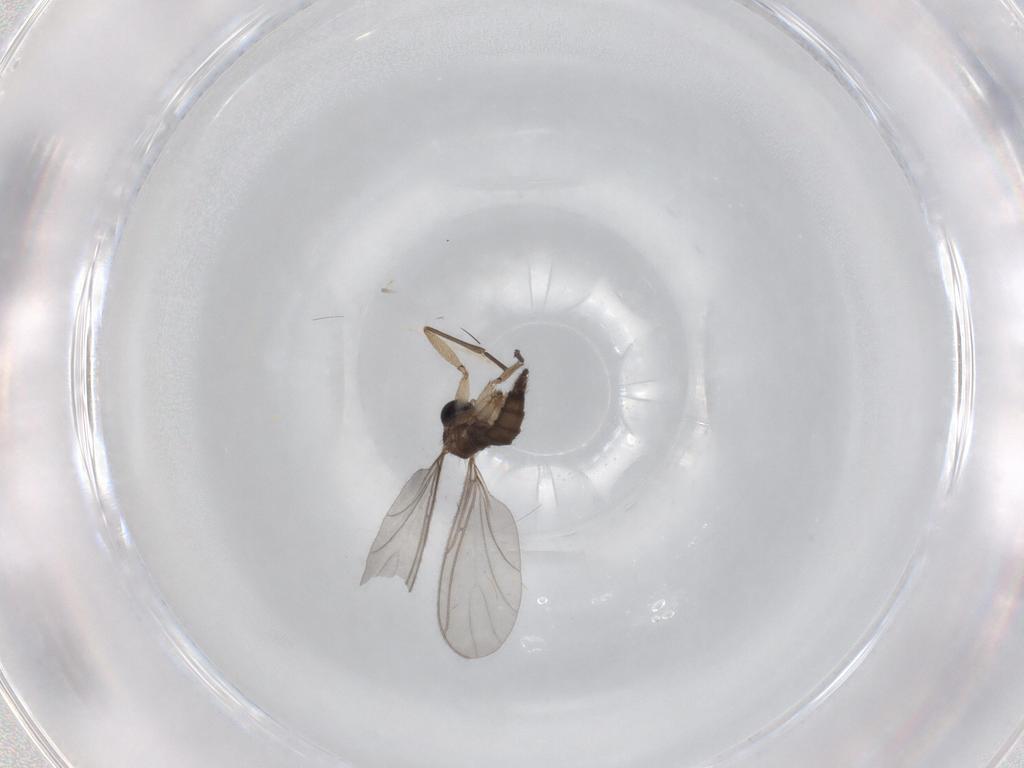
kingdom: Animalia
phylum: Arthropoda
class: Insecta
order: Diptera
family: Sciaridae
